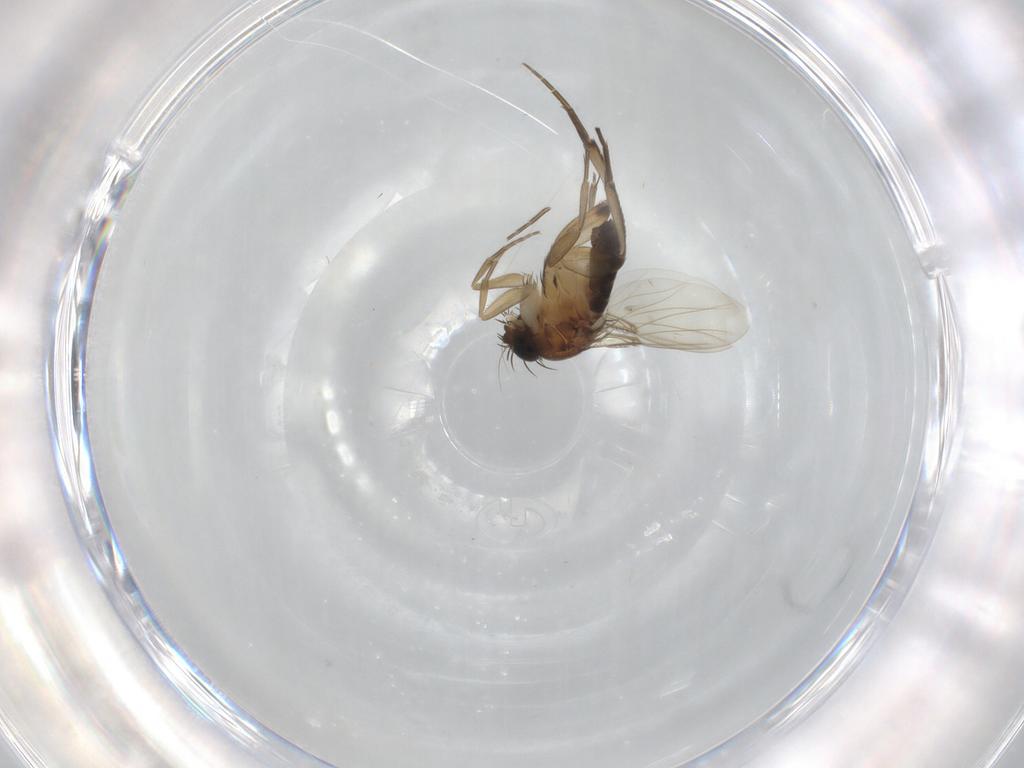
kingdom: Animalia
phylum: Arthropoda
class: Insecta
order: Diptera
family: Phoridae
